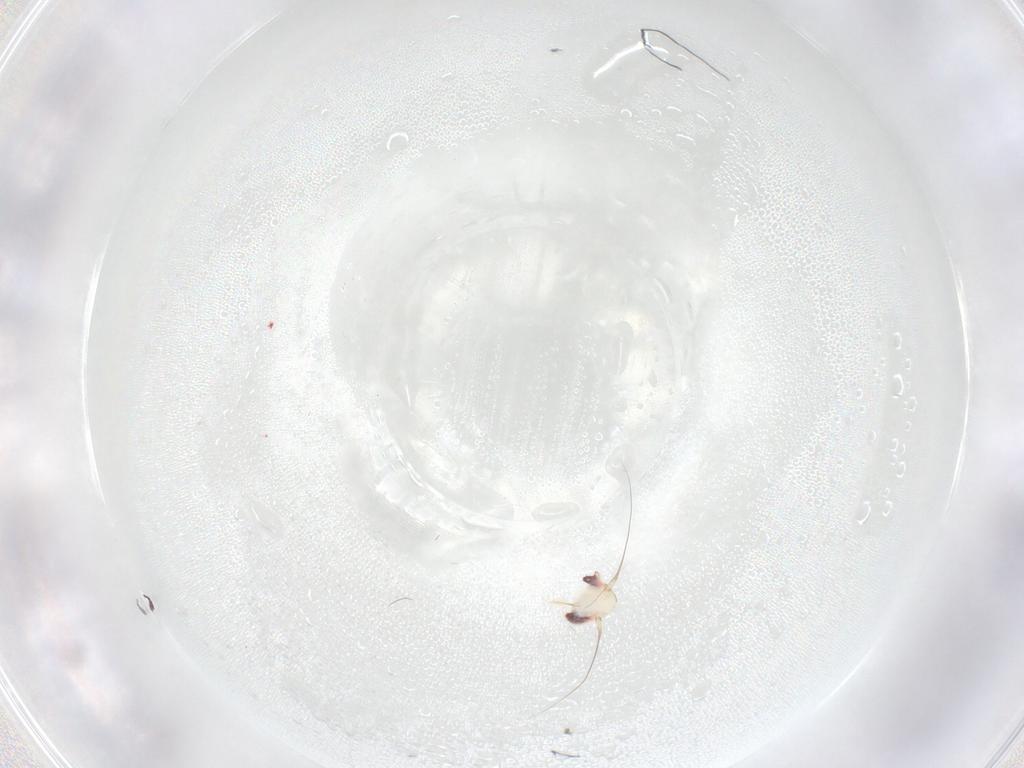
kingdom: Animalia
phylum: Arthropoda
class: Insecta
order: Hemiptera
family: Cicadellidae
